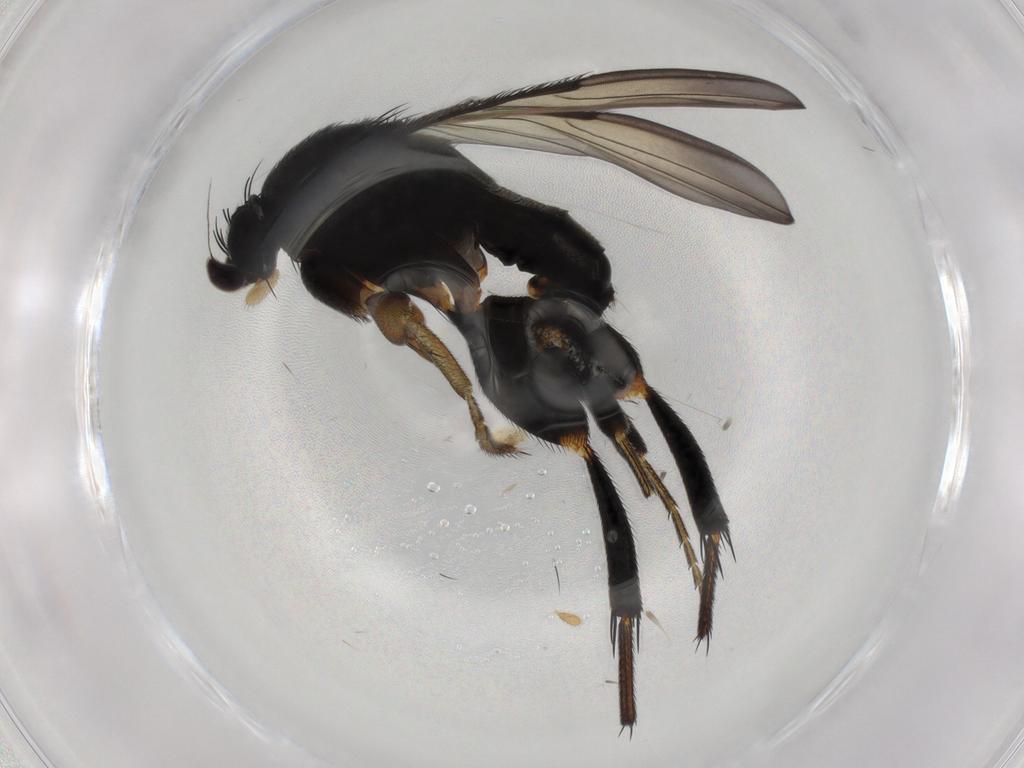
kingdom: Animalia
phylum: Arthropoda
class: Insecta
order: Diptera
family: Phoridae
